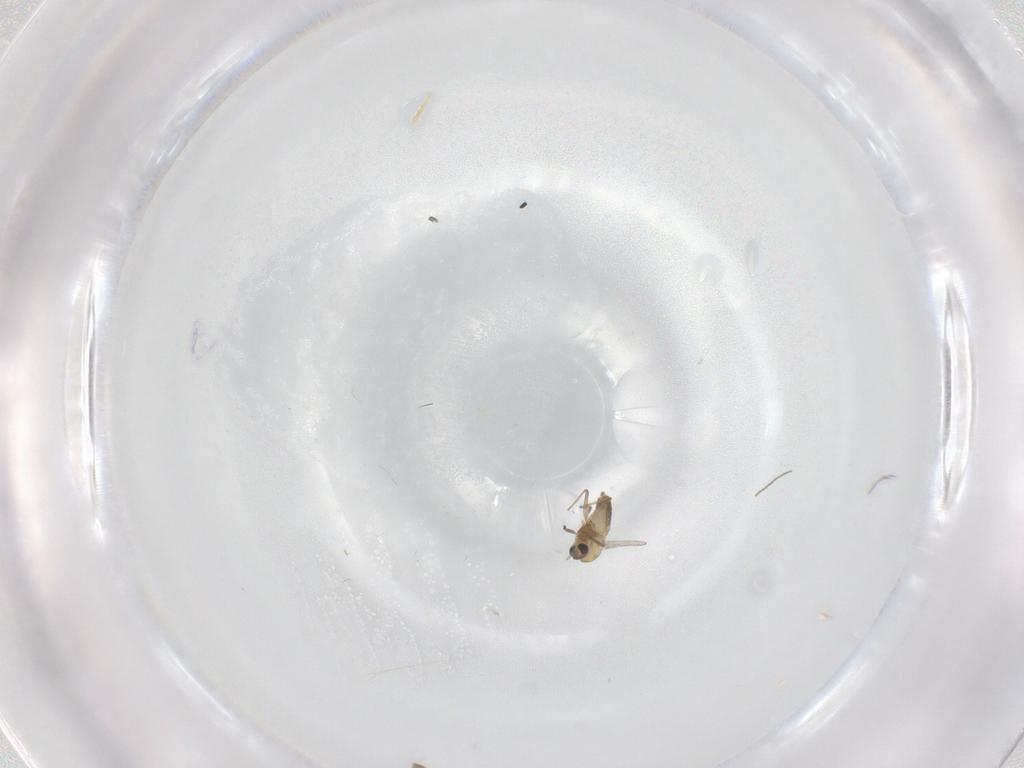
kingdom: Animalia
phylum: Arthropoda
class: Insecta
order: Diptera
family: Chironomidae
